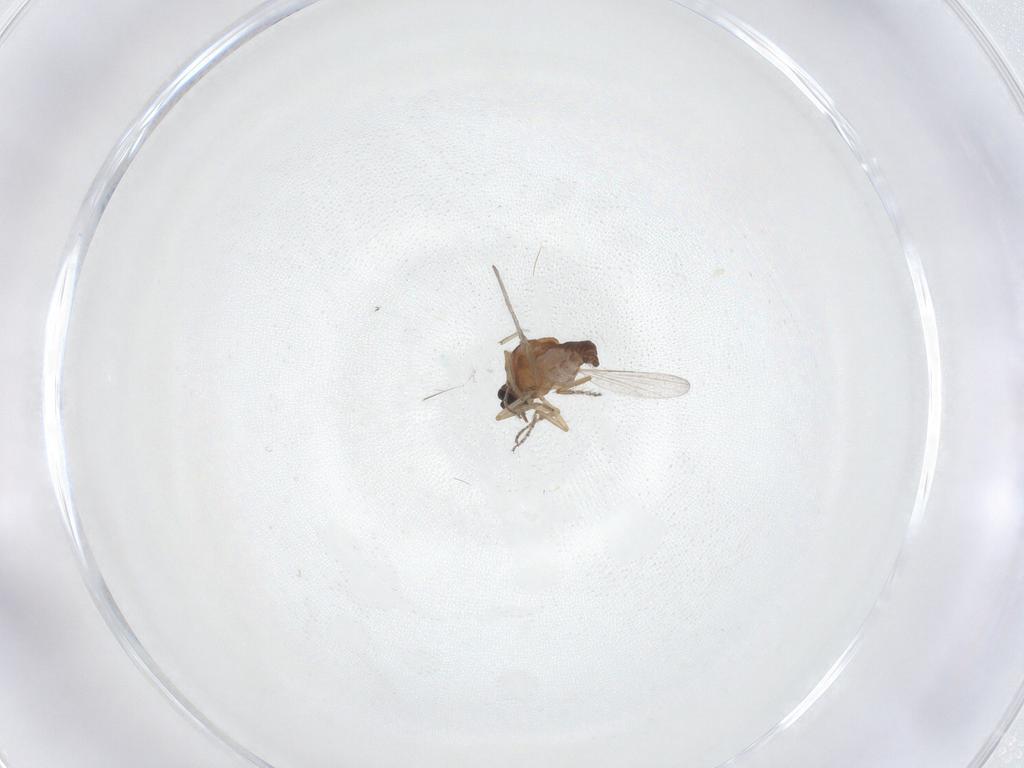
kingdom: Animalia
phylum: Arthropoda
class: Insecta
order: Diptera
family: Ceratopogonidae
